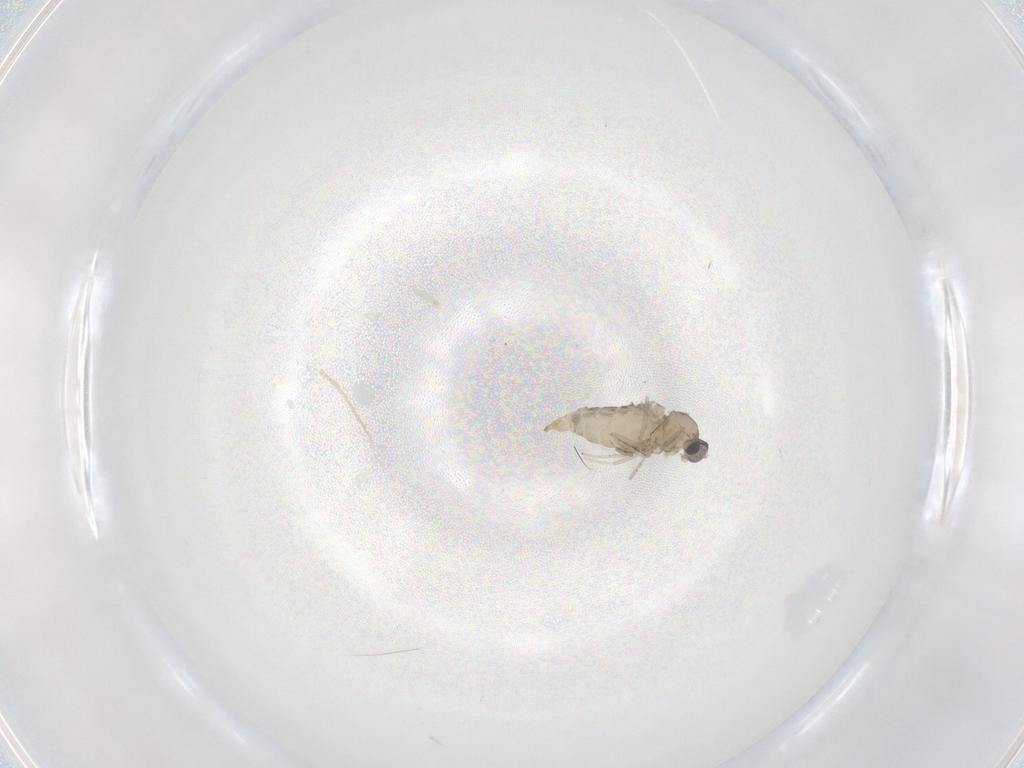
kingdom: Animalia
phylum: Arthropoda
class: Insecta
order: Diptera
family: Cecidomyiidae
